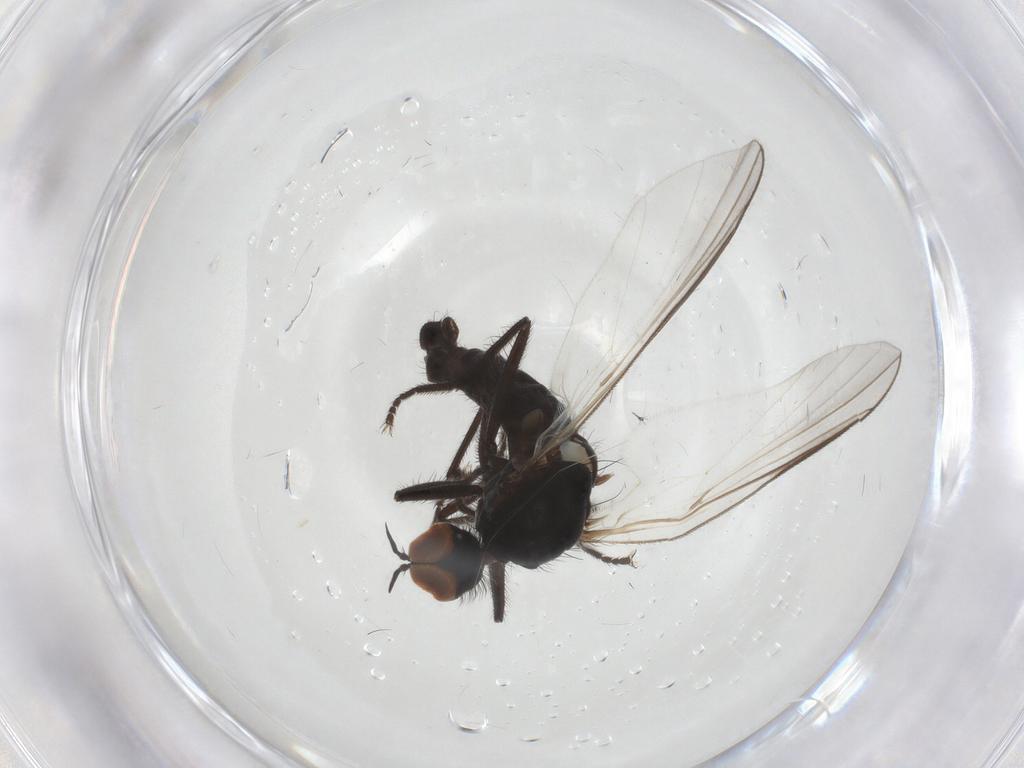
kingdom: Animalia
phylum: Arthropoda
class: Insecta
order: Diptera
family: Empididae
